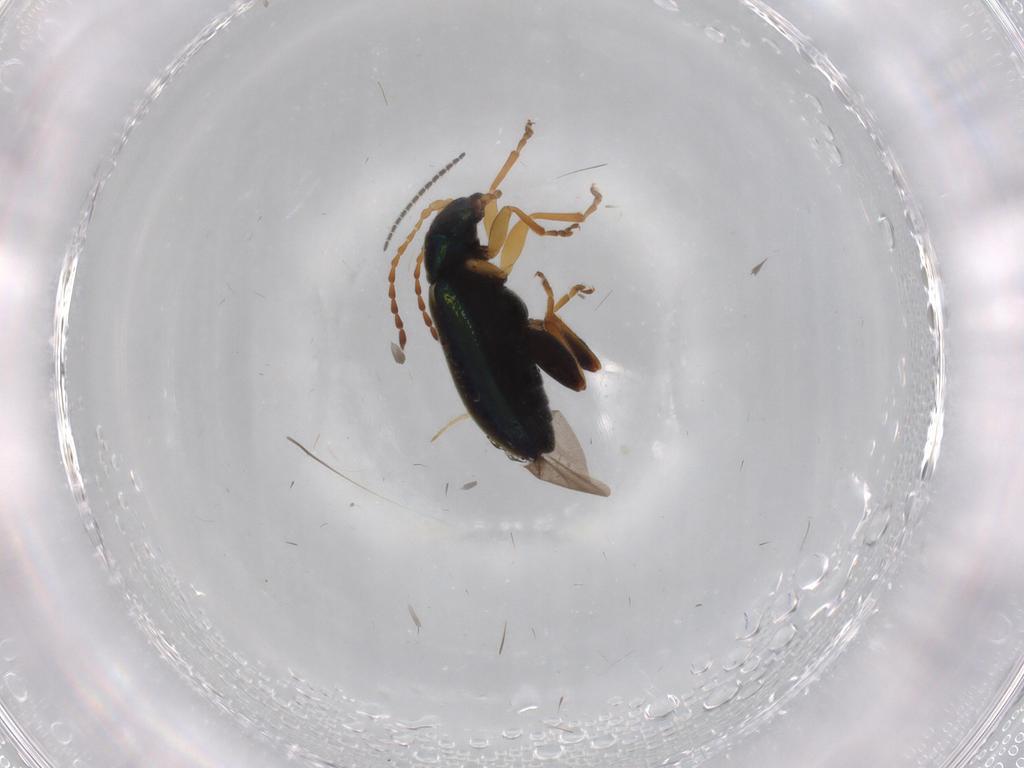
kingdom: Animalia
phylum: Arthropoda
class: Insecta
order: Coleoptera
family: Chrysomelidae
